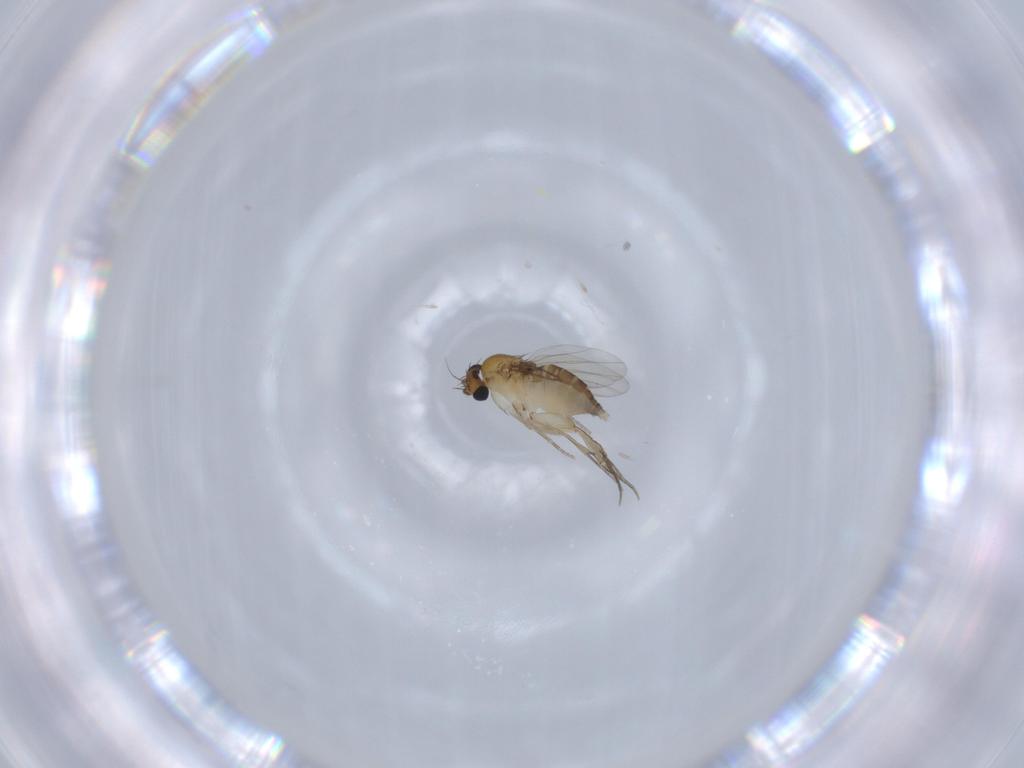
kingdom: Animalia
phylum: Arthropoda
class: Insecta
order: Diptera
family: Phoridae
